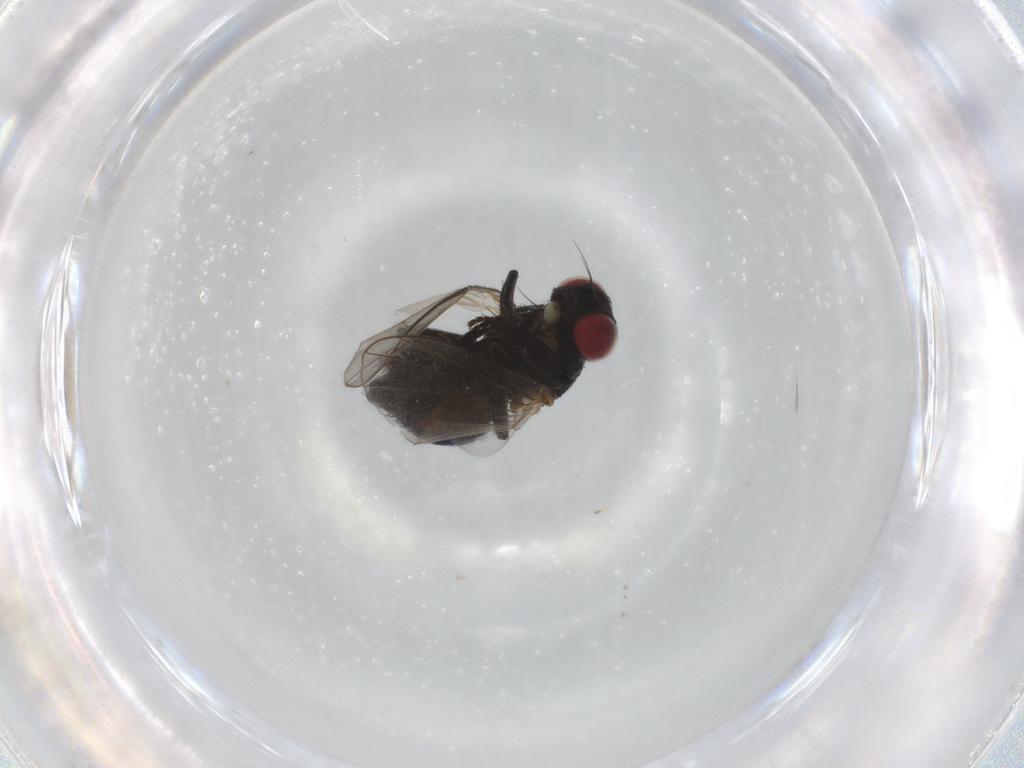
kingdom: Animalia
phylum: Arthropoda
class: Insecta
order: Diptera
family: Agromyzidae
